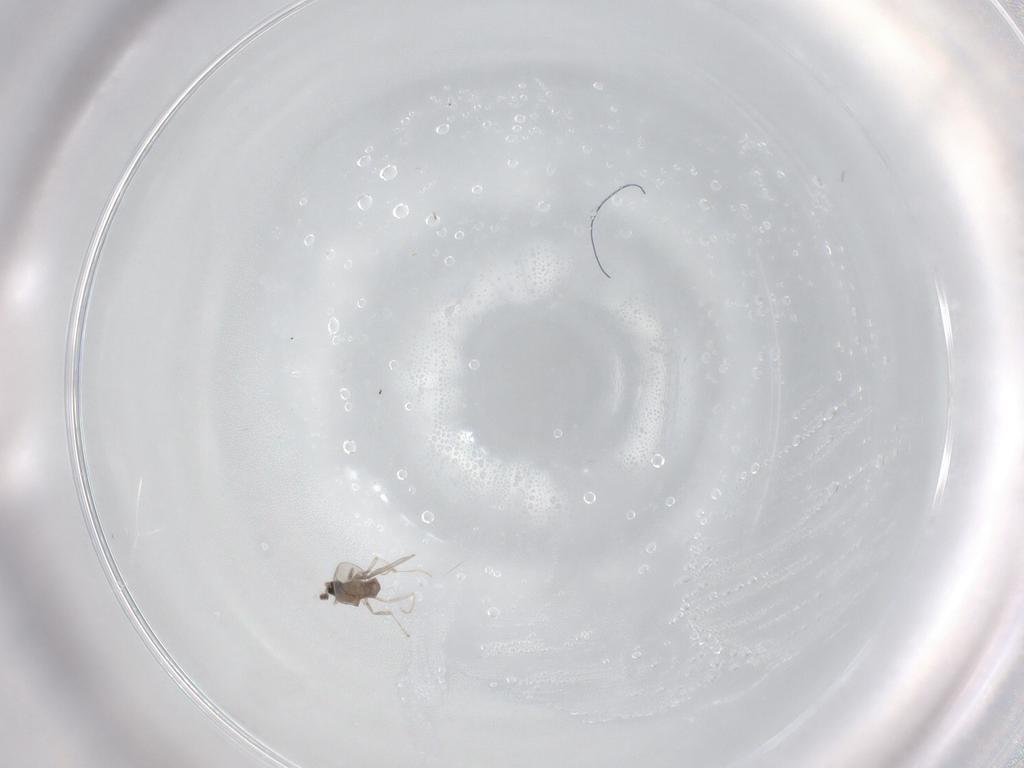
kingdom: Animalia
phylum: Arthropoda
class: Insecta
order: Diptera
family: Cecidomyiidae
